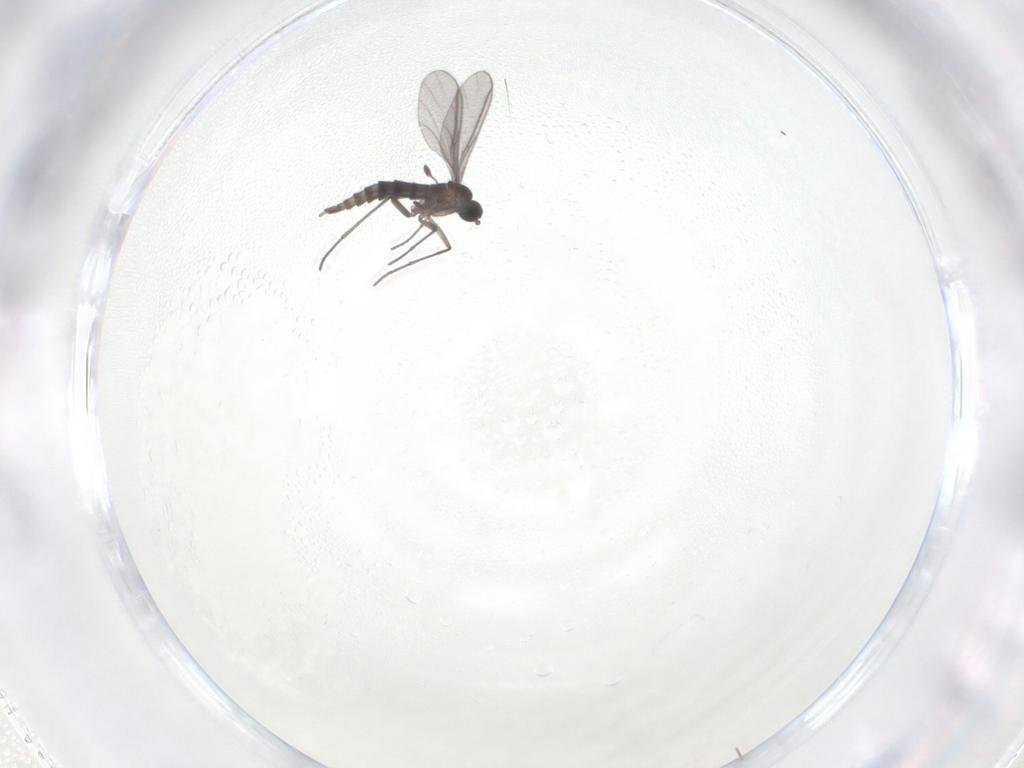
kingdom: Animalia
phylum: Arthropoda
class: Insecta
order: Diptera
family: Sciaridae
